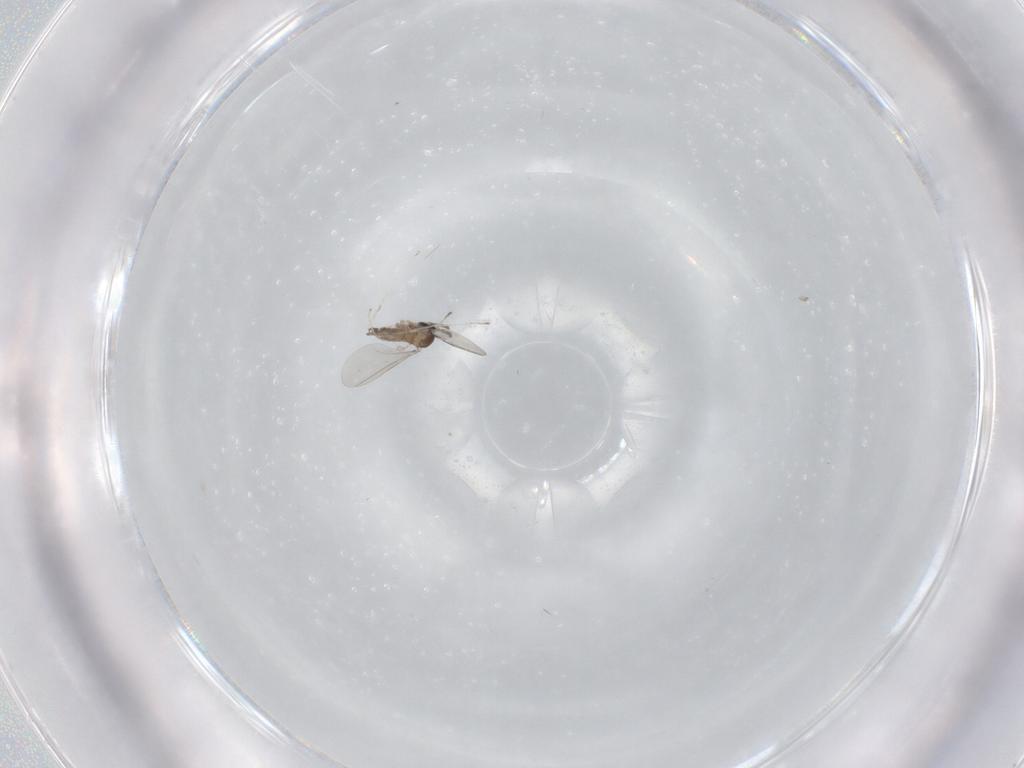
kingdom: Animalia
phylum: Arthropoda
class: Insecta
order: Diptera
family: Cecidomyiidae
